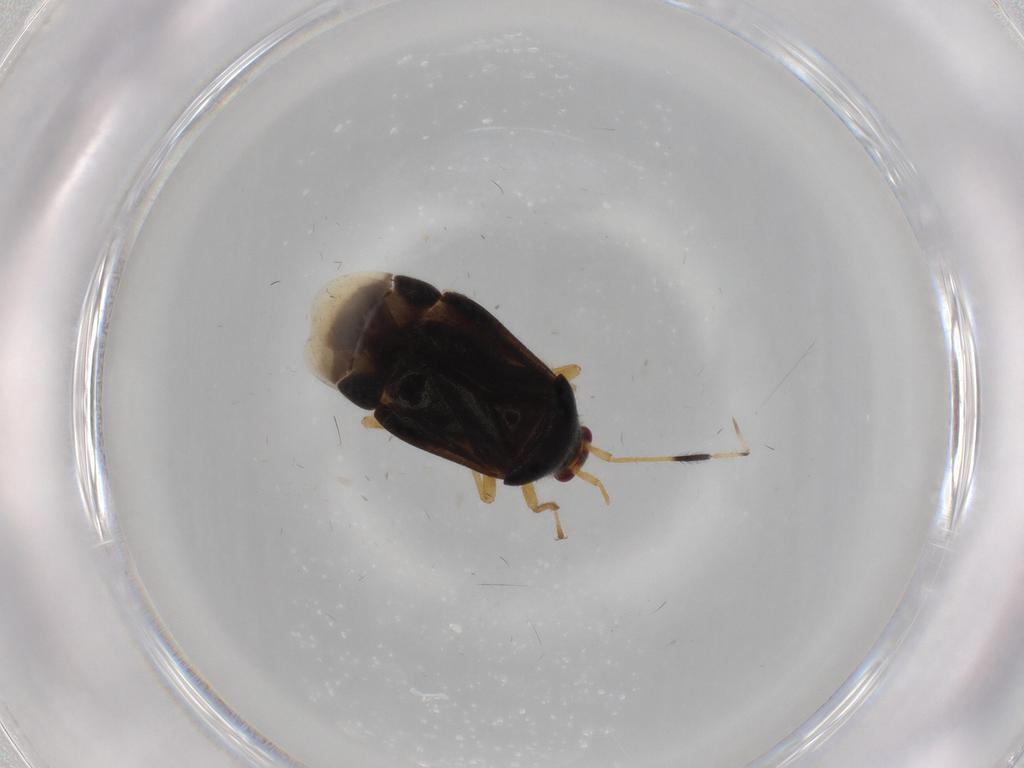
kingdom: Animalia
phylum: Arthropoda
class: Insecta
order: Hemiptera
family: Miridae
